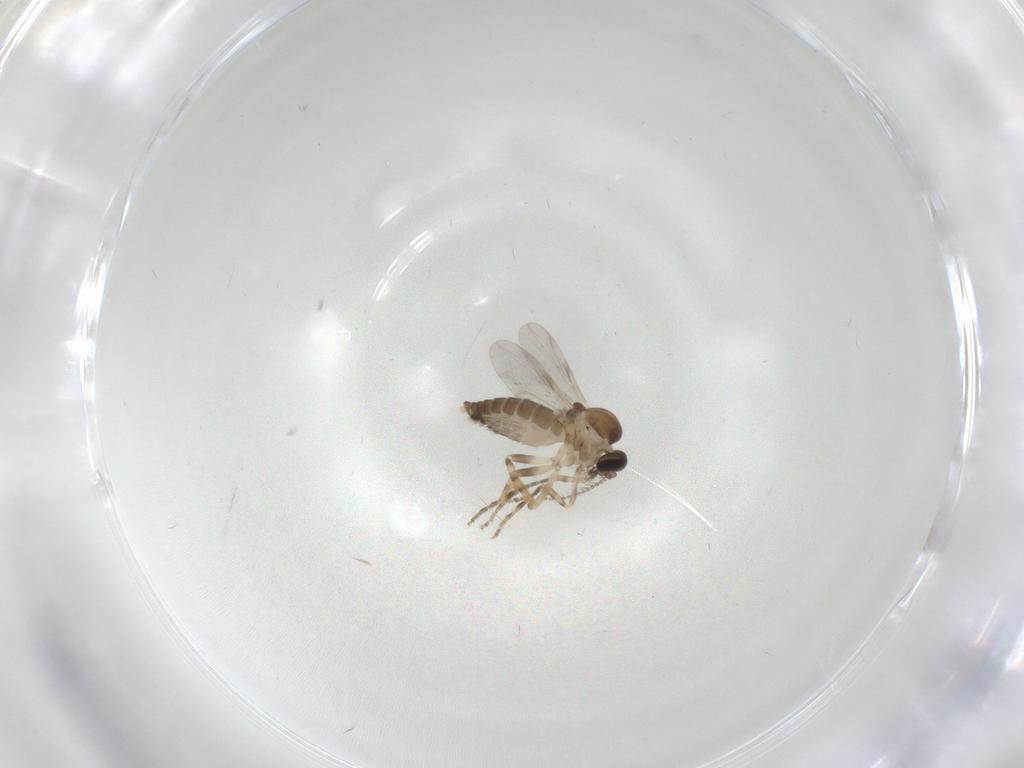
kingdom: Animalia
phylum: Arthropoda
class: Insecta
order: Diptera
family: Ceratopogonidae
